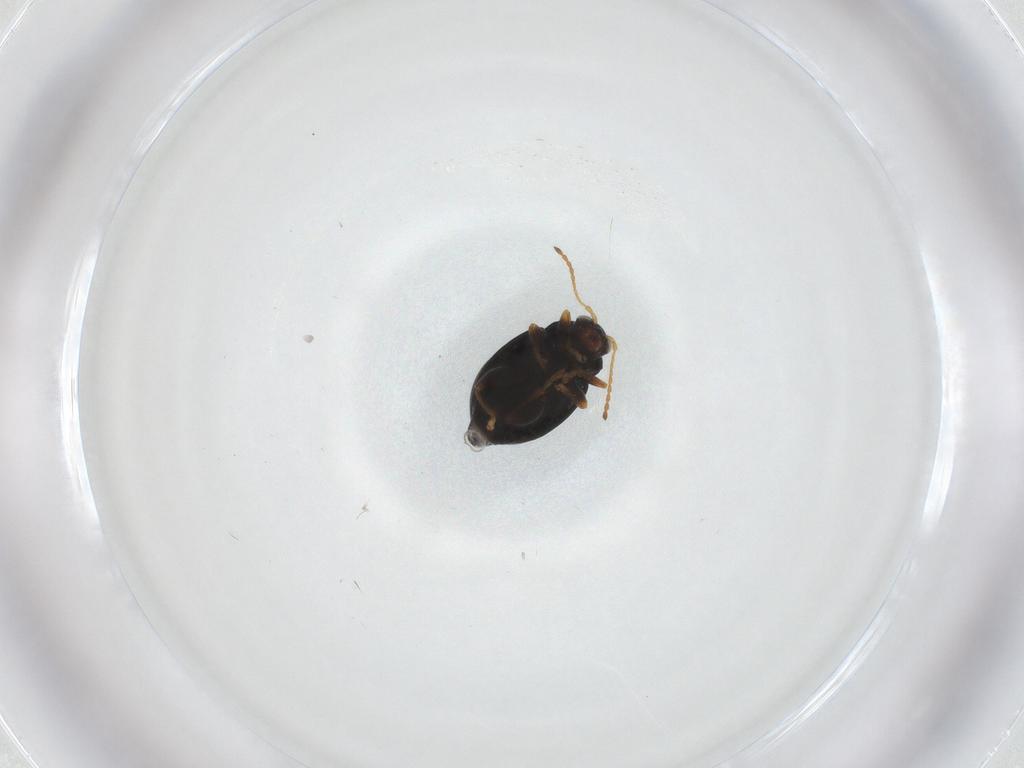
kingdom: Animalia
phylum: Arthropoda
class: Insecta
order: Coleoptera
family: Chrysomelidae
